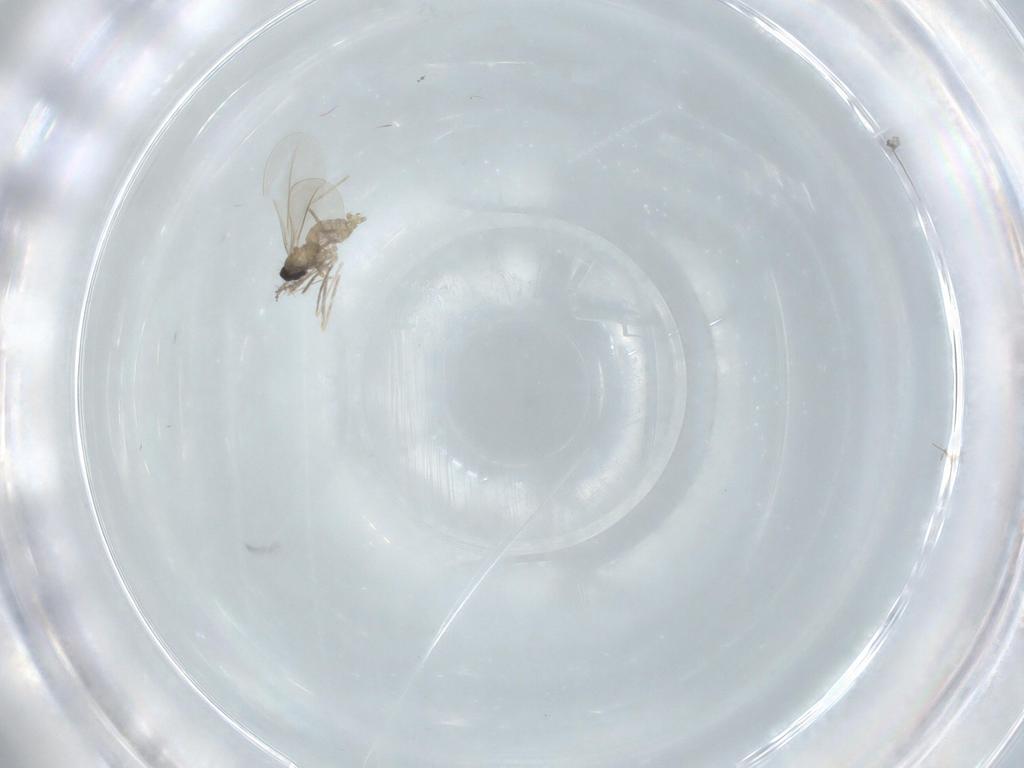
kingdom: Animalia
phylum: Arthropoda
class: Insecta
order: Diptera
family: Cecidomyiidae
